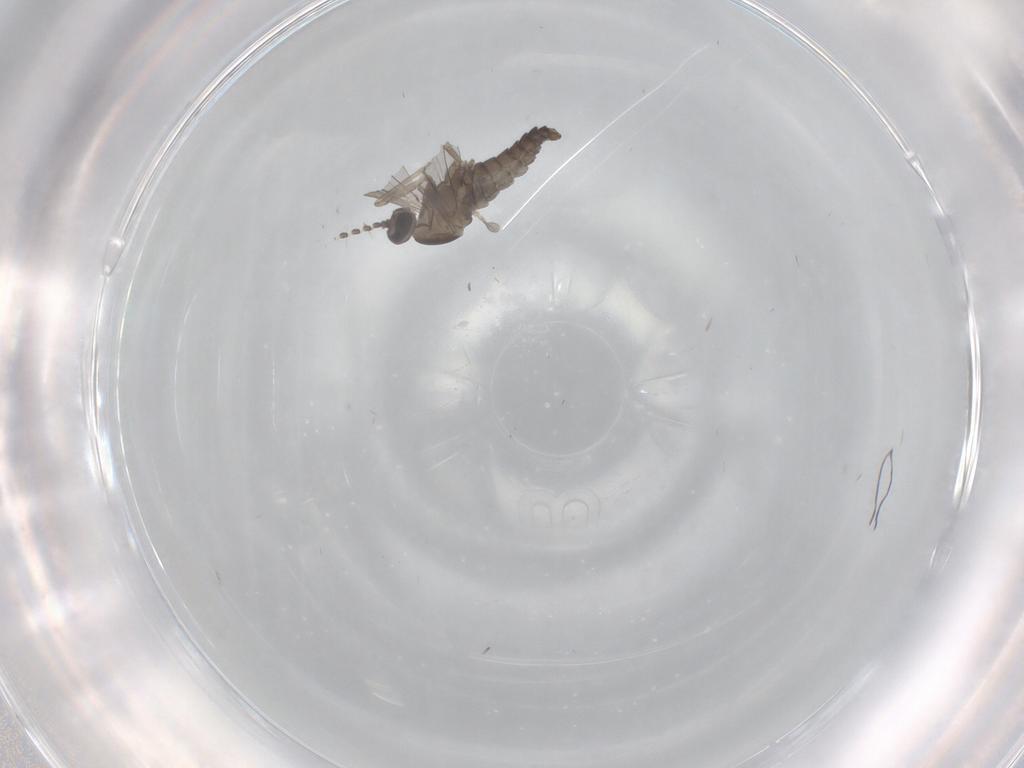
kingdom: Animalia
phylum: Arthropoda
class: Insecta
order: Diptera
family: Cecidomyiidae
